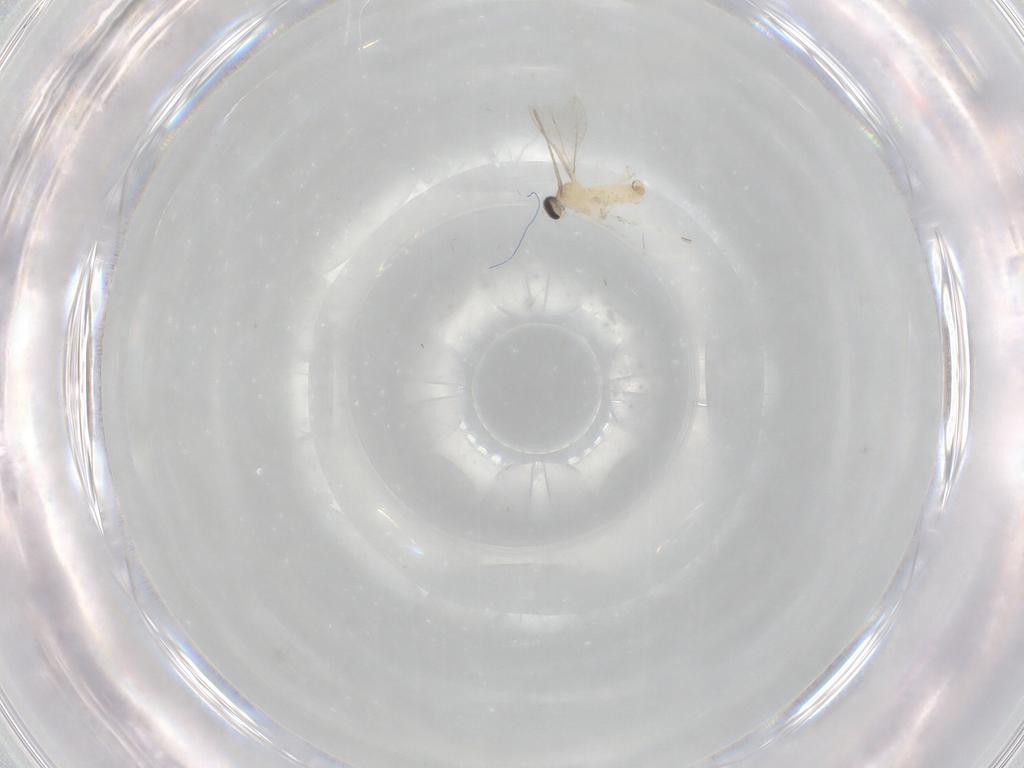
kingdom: Animalia
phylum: Arthropoda
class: Insecta
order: Diptera
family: Cecidomyiidae
